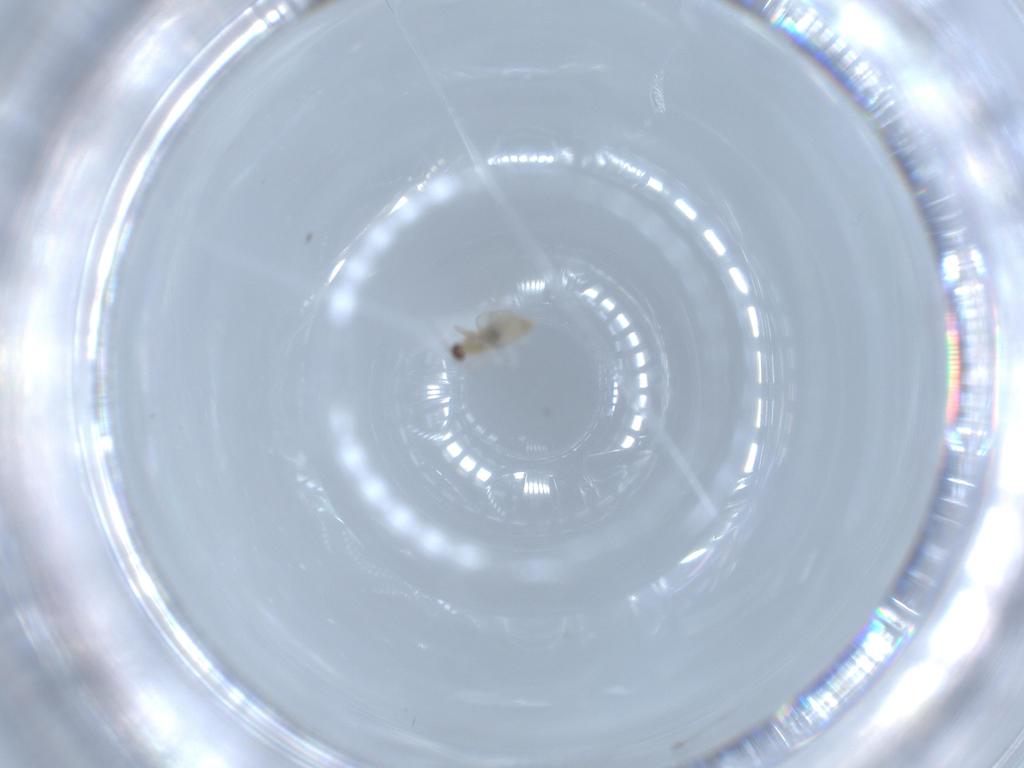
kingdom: Animalia
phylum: Arthropoda
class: Insecta
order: Diptera
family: Cecidomyiidae
